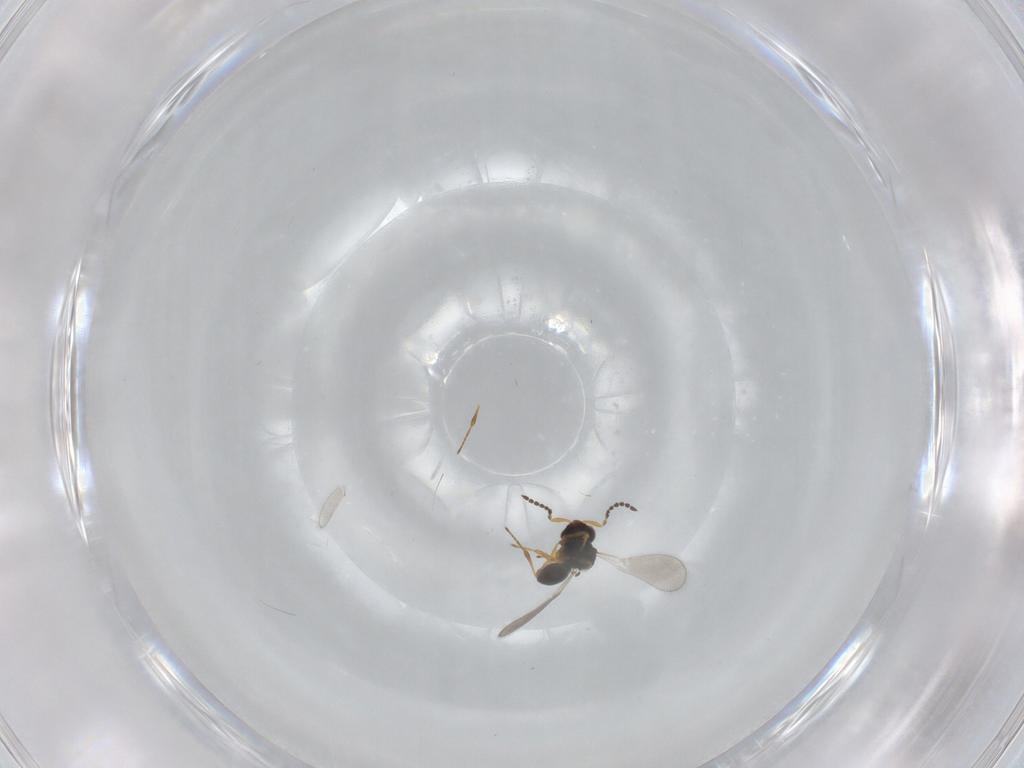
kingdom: Animalia
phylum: Arthropoda
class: Insecta
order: Hymenoptera
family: Platygastridae
